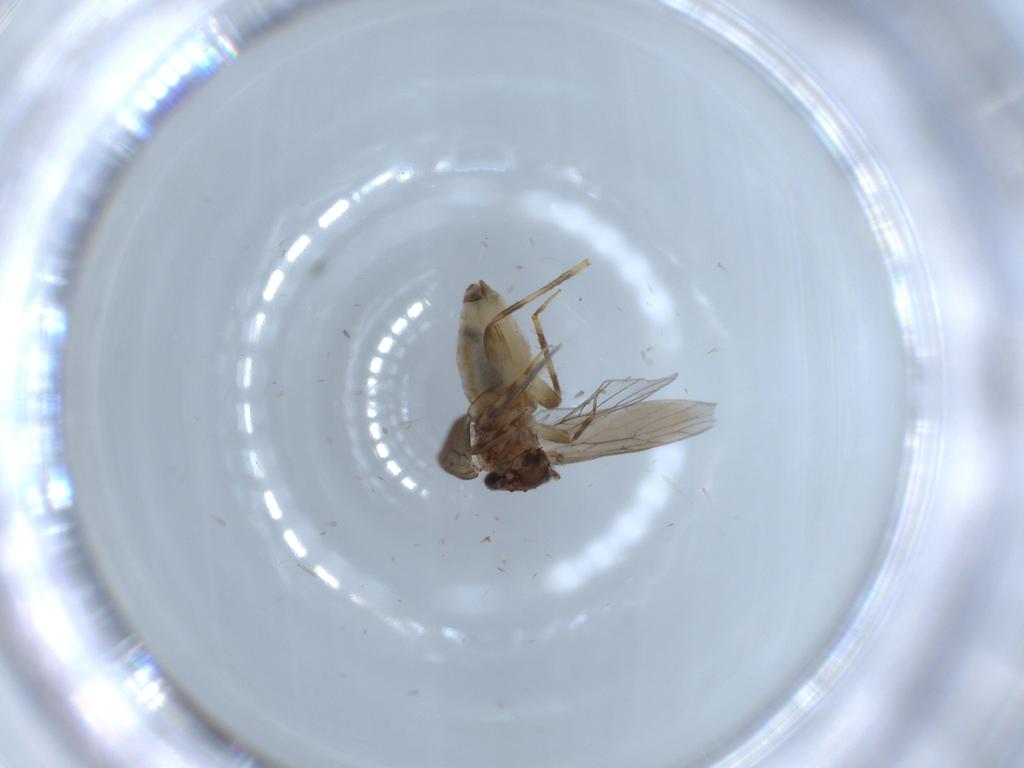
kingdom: Animalia
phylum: Arthropoda
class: Insecta
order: Psocodea
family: Lepidopsocidae
